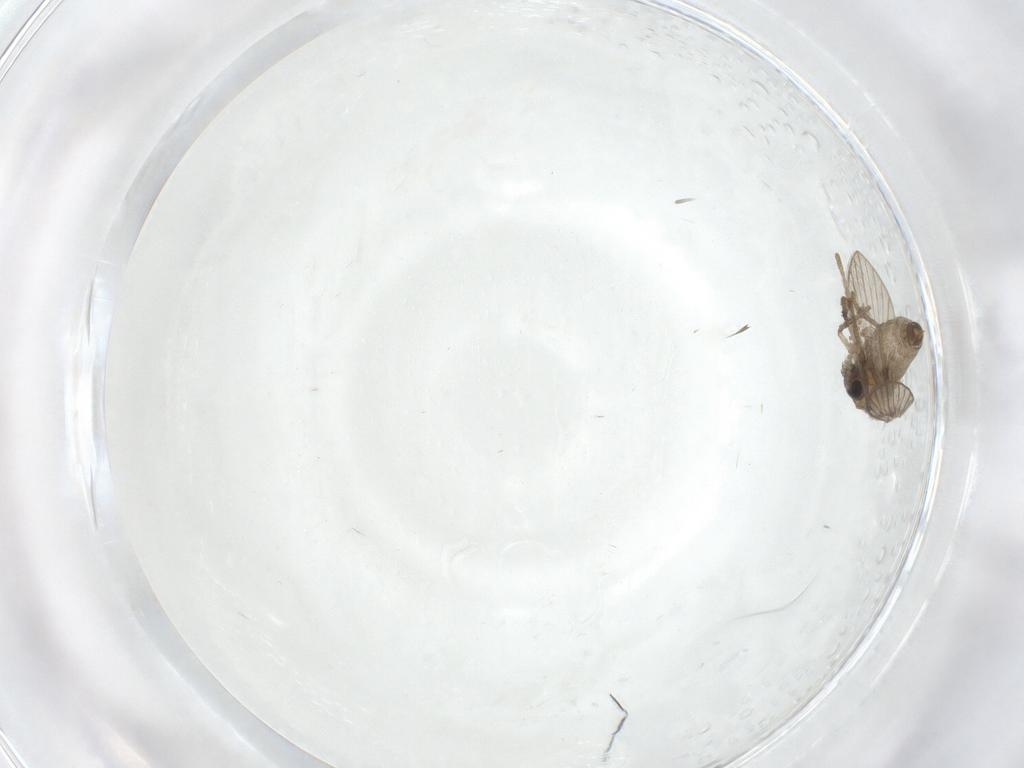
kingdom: Animalia
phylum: Arthropoda
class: Insecta
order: Diptera
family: Psychodidae
